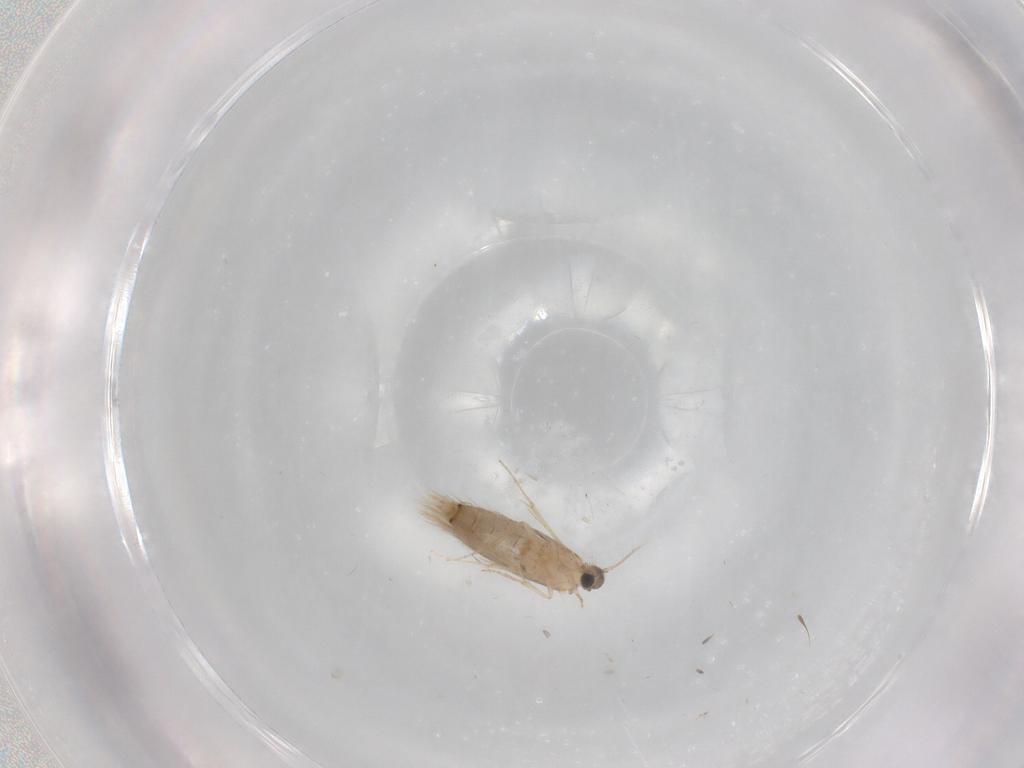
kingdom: Animalia
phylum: Arthropoda
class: Insecta
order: Trichoptera
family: Hydroptilidae
